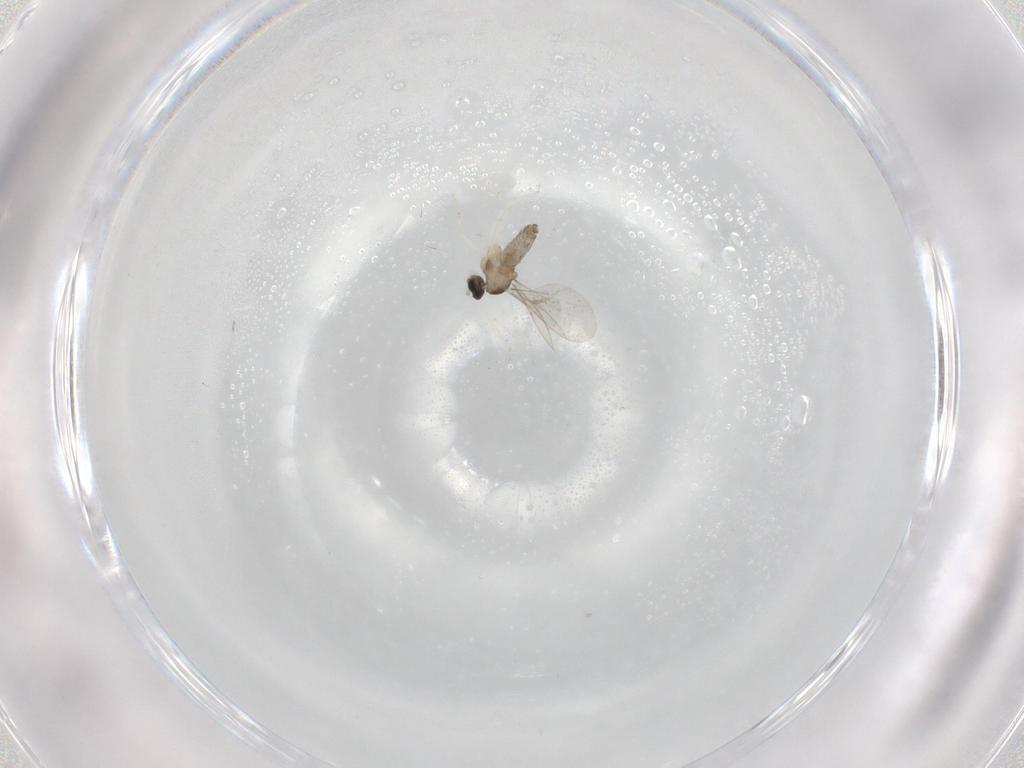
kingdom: Animalia
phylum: Arthropoda
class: Insecta
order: Diptera
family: Cecidomyiidae
